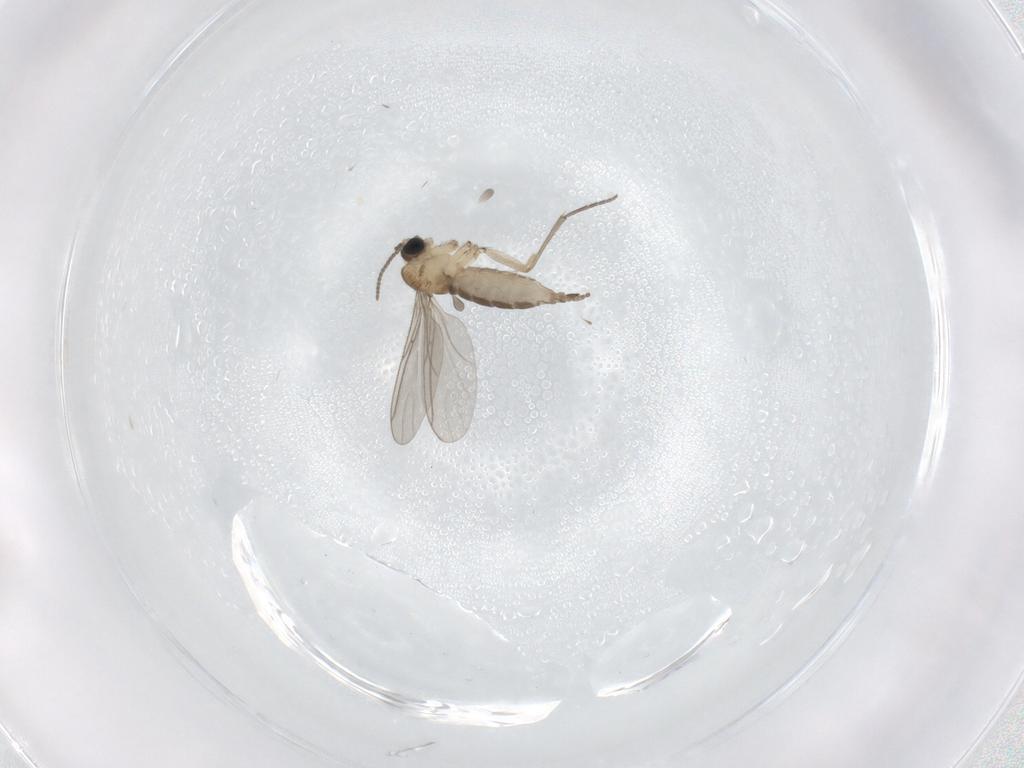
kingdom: Animalia
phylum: Arthropoda
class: Insecta
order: Diptera
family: Sciaridae
